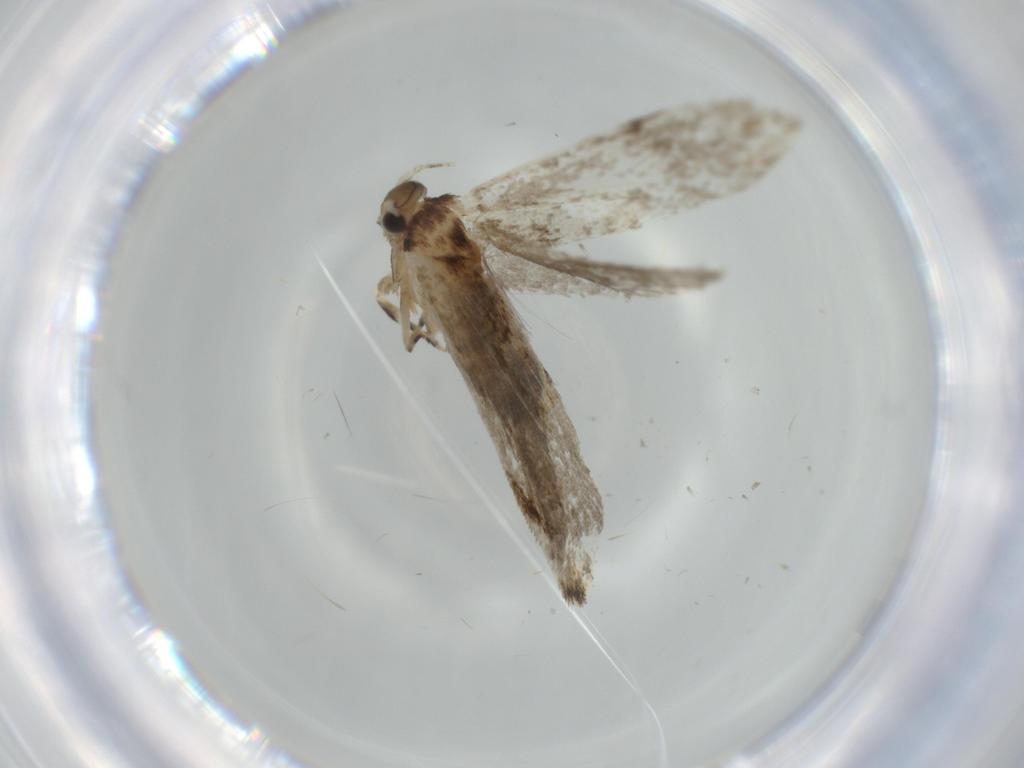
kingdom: Animalia
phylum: Arthropoda
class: Insecta
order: Lepidoptera
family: Tineidae
